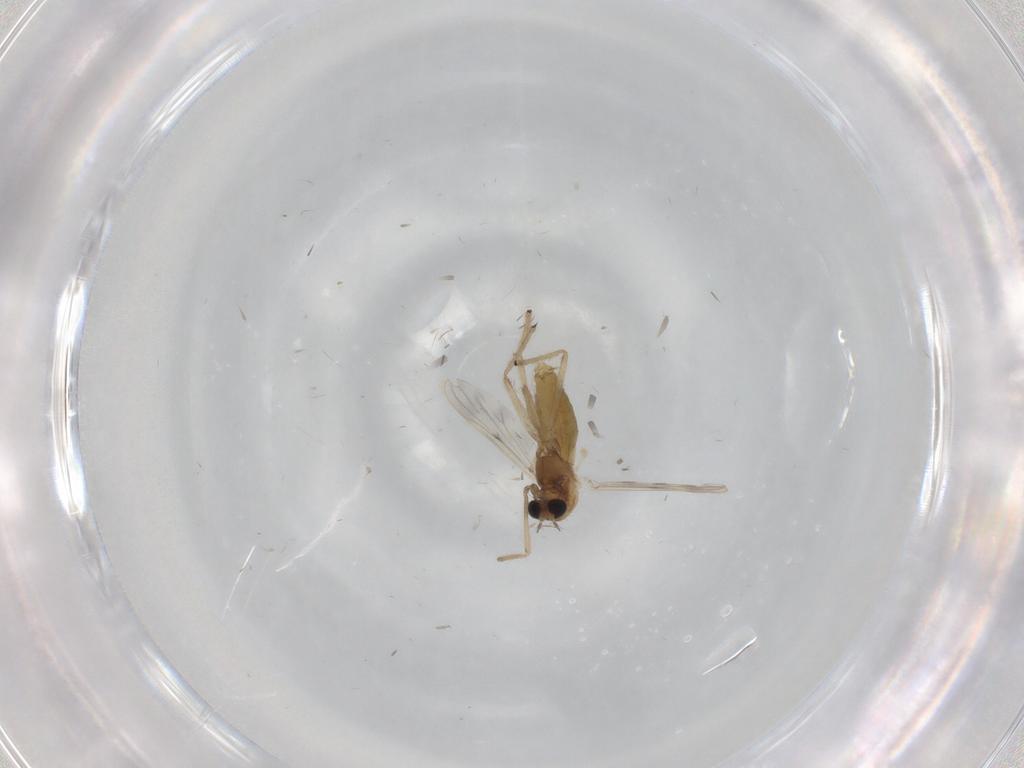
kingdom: Animalia
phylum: Arthropoda
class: Insecta
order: Diptera
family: Chironomidae
